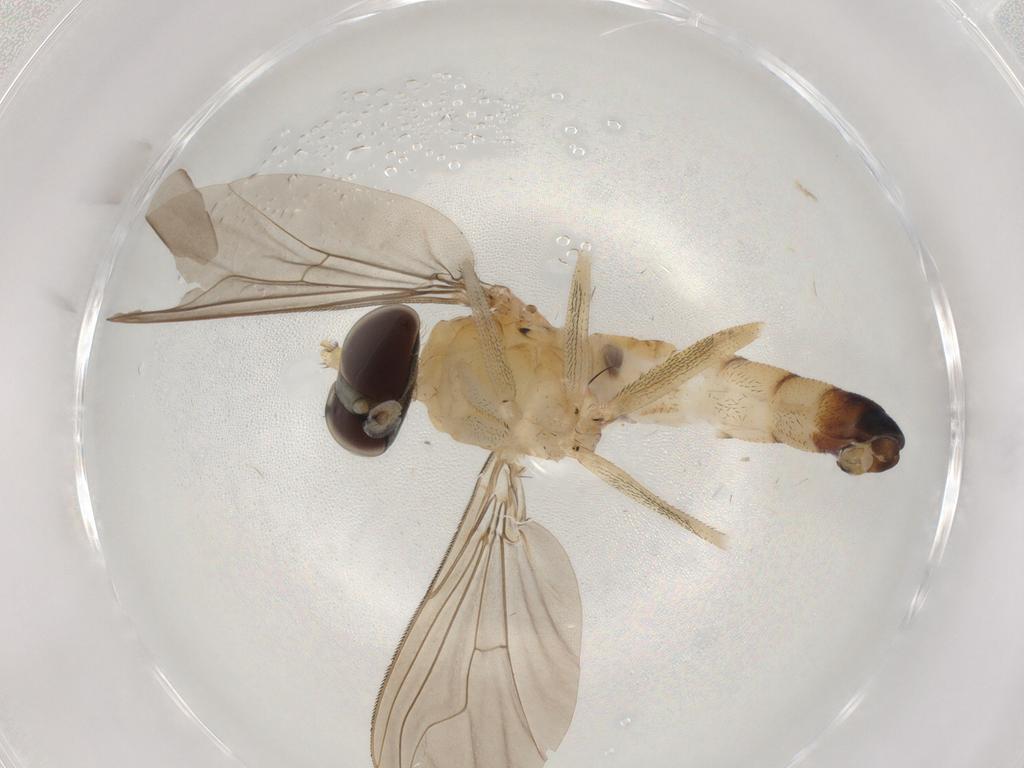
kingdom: Animalia
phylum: Arthropoda
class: Insecta
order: Diptera
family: Dolichopodidae
